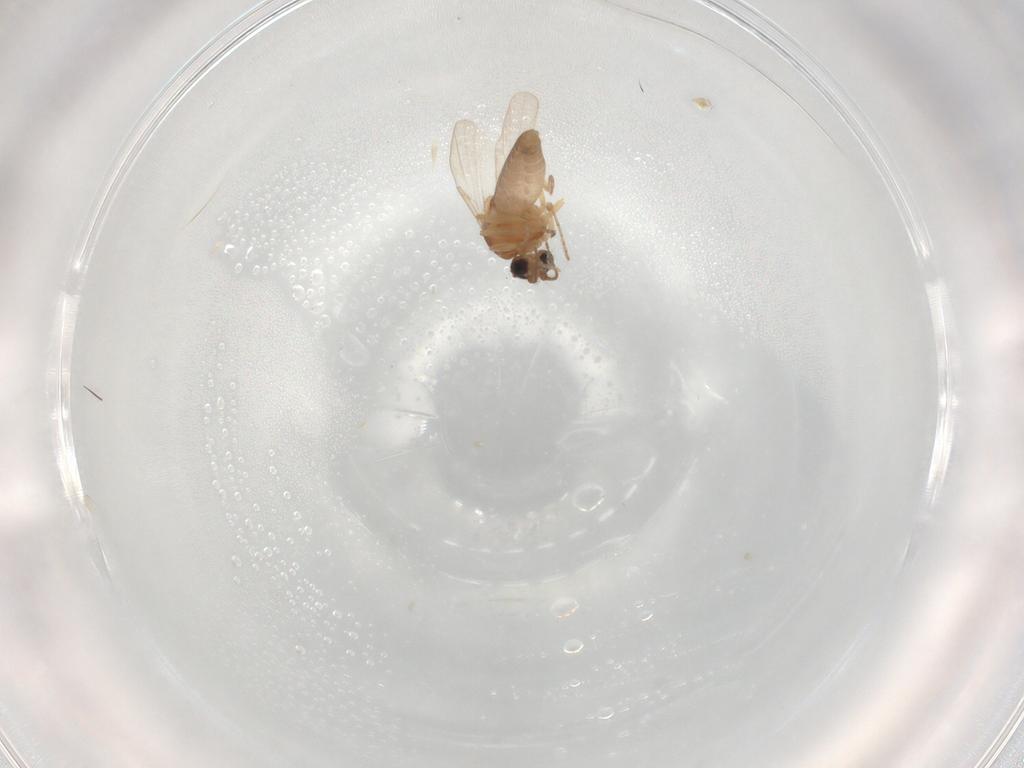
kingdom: Animalia
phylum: Arthropoda
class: Insecta
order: Diptera
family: Ceratopogonidae
